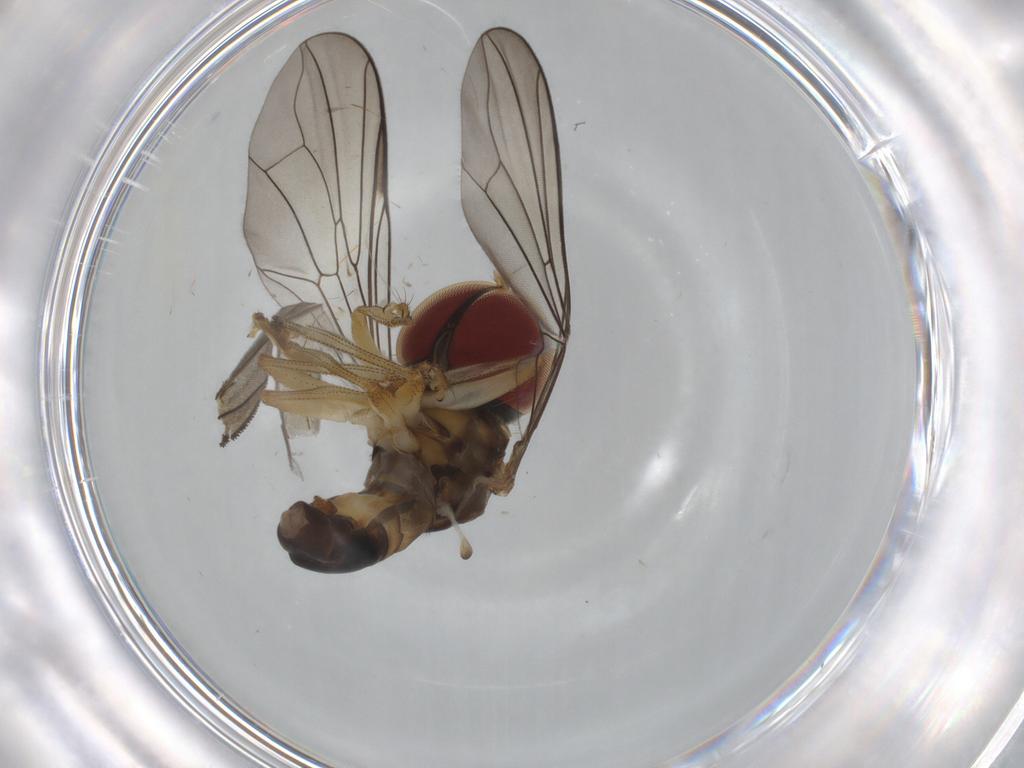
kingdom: Animalia
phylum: Arthropoda
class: Insecta
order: Diptera
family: Pipunculidae
